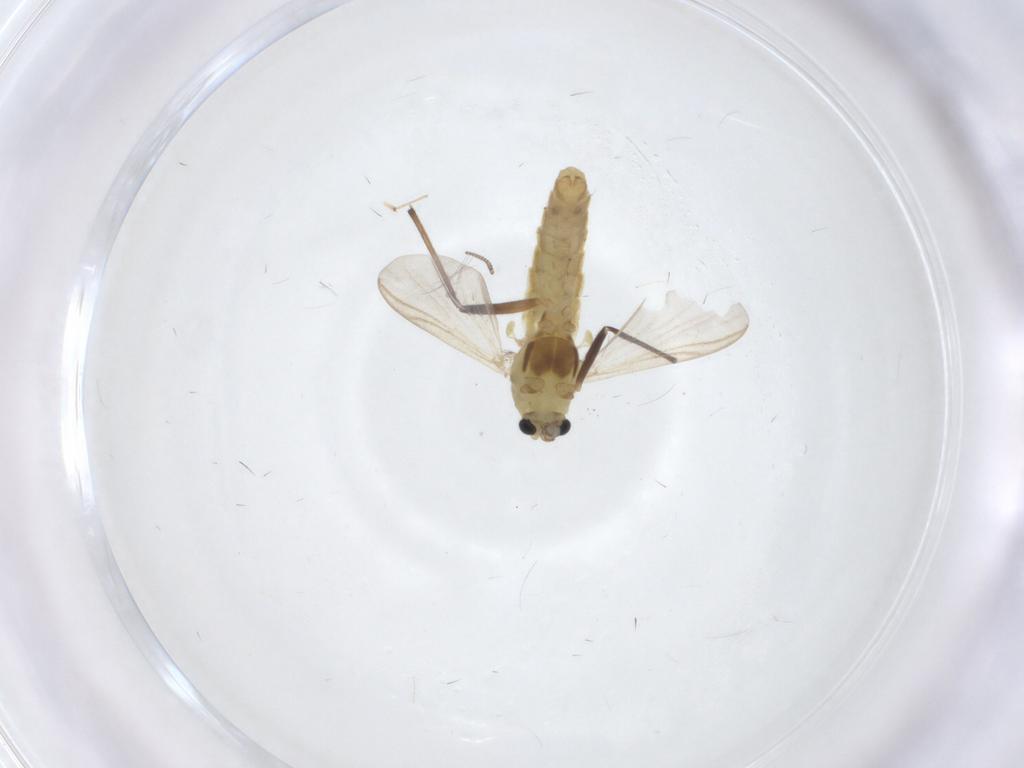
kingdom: Animalia
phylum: Arthropoda
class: Insecta
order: Diptera
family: Chironomidae
